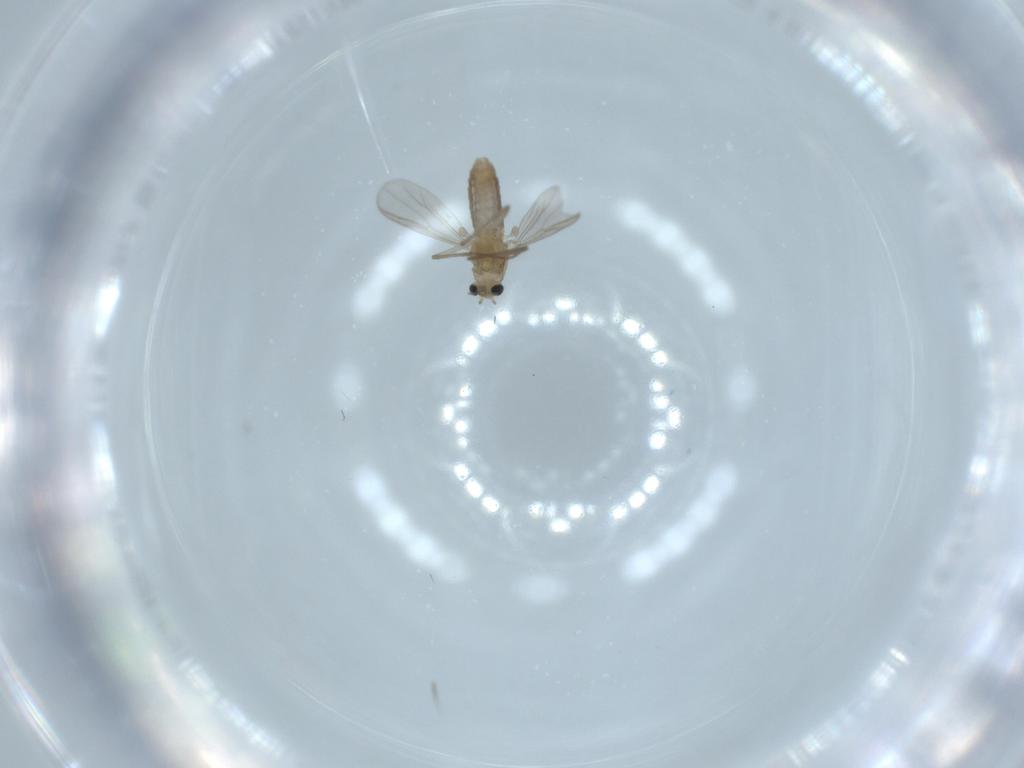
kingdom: Animalia
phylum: Arthropoda
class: Insecta
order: Diptera
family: Chironomidae
